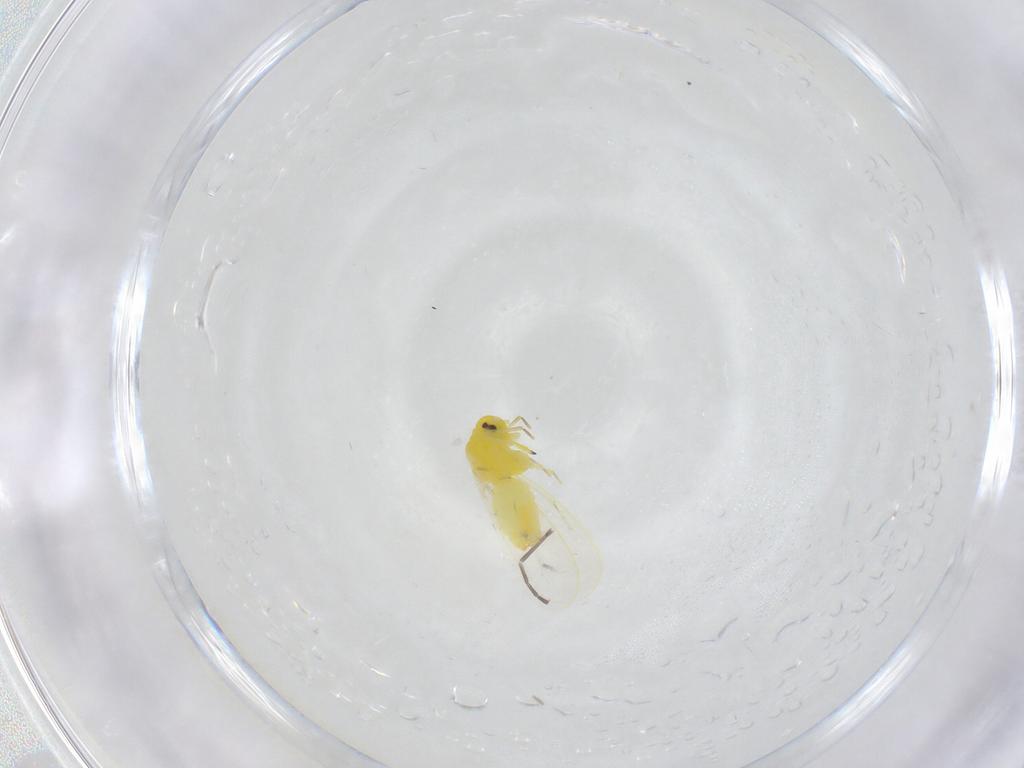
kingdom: Animalia
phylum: Arthropoda
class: Insecta
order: Hemiptera
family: Aleyrodidae
